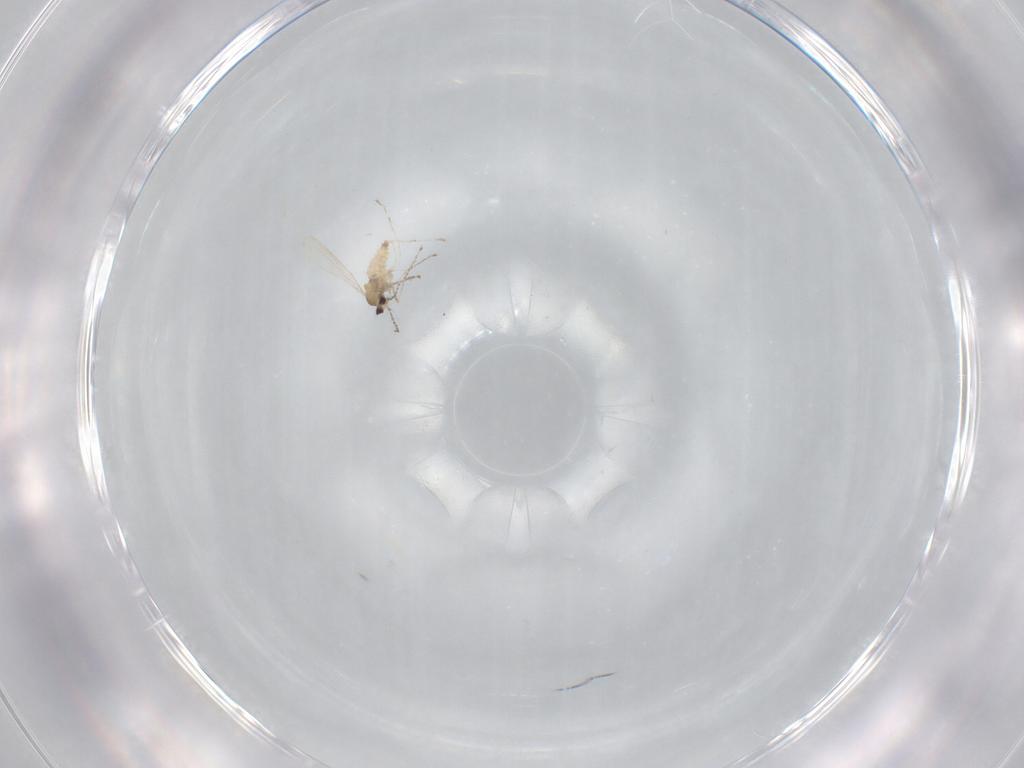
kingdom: Animalia
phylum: Arthropoda
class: Insecta
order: Diptera
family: Cecidomyiidae
